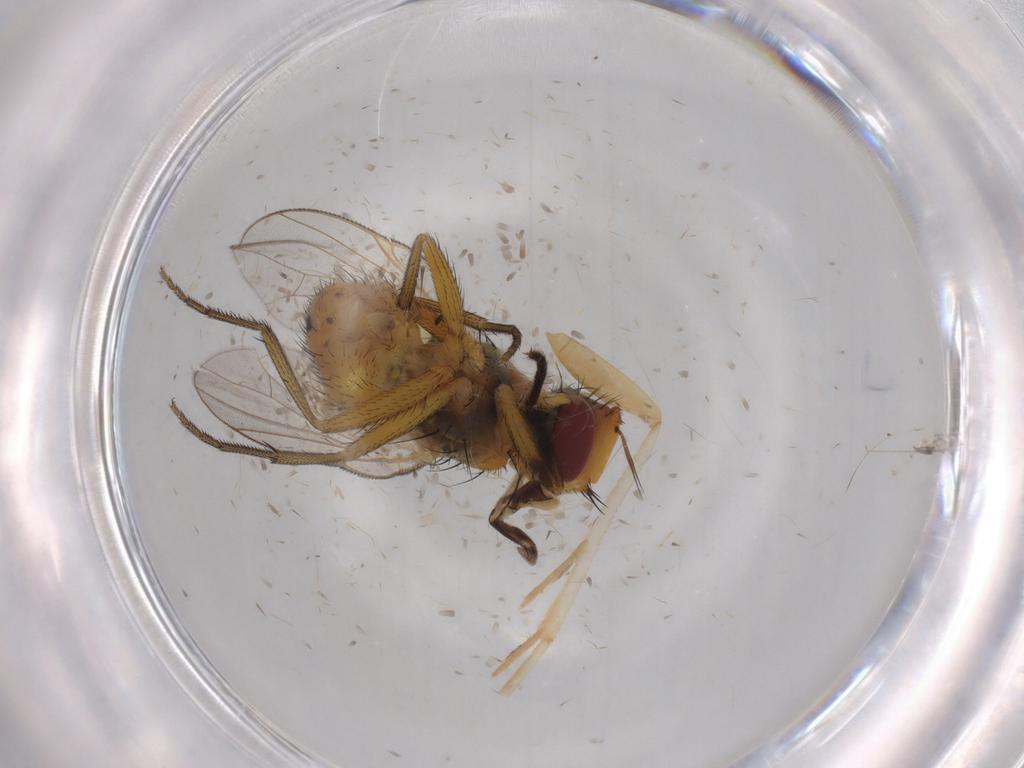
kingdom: Animalia
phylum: Arthropoda
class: Insecta
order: Diptera
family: Muscidae
